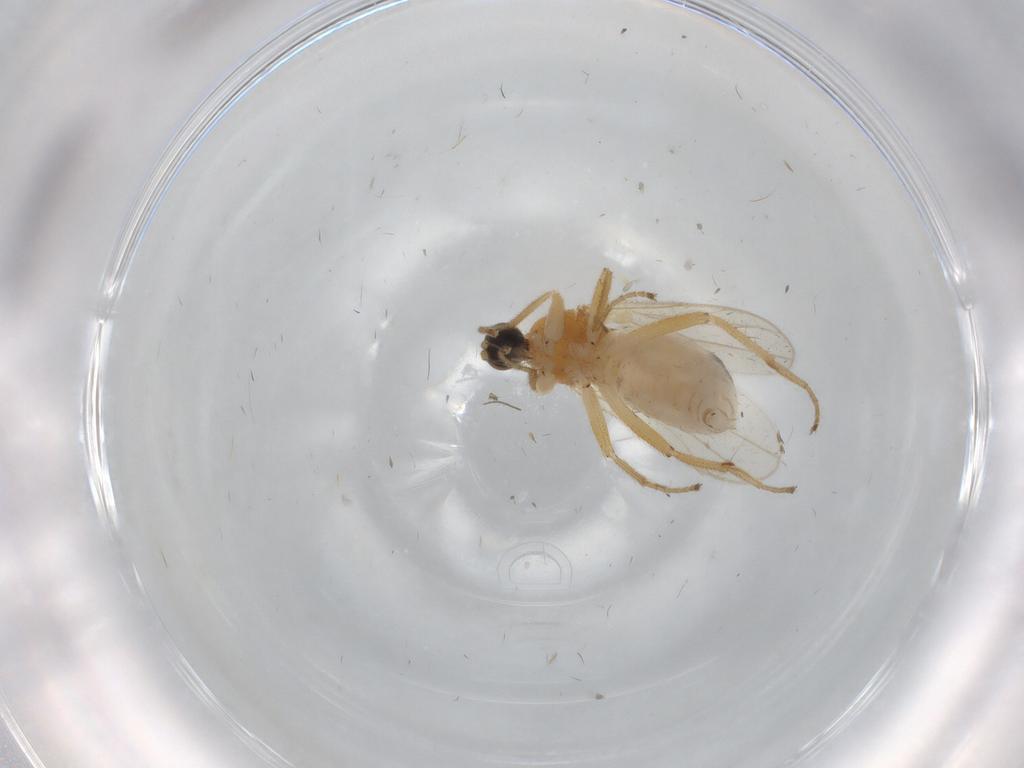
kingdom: Animalia
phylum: Arthropoda
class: Insecta
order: Diptera
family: Hybotidae
